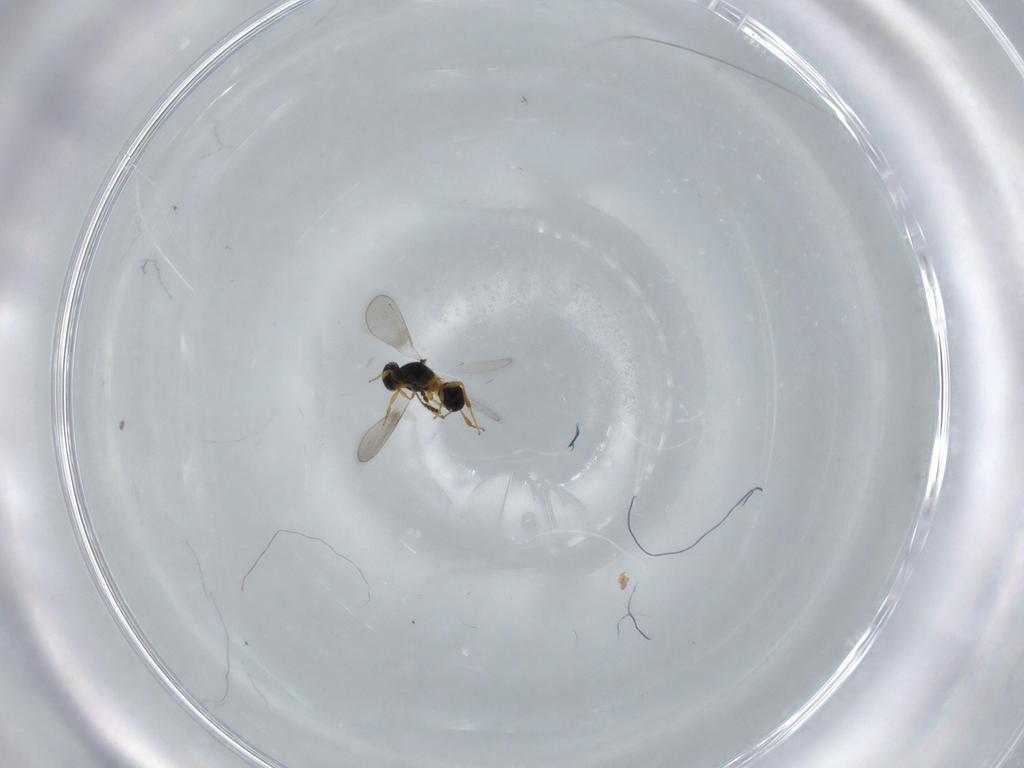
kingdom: Animalia
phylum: Arthropoda
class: Insecta
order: Hymenoptera
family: Platygastridae
